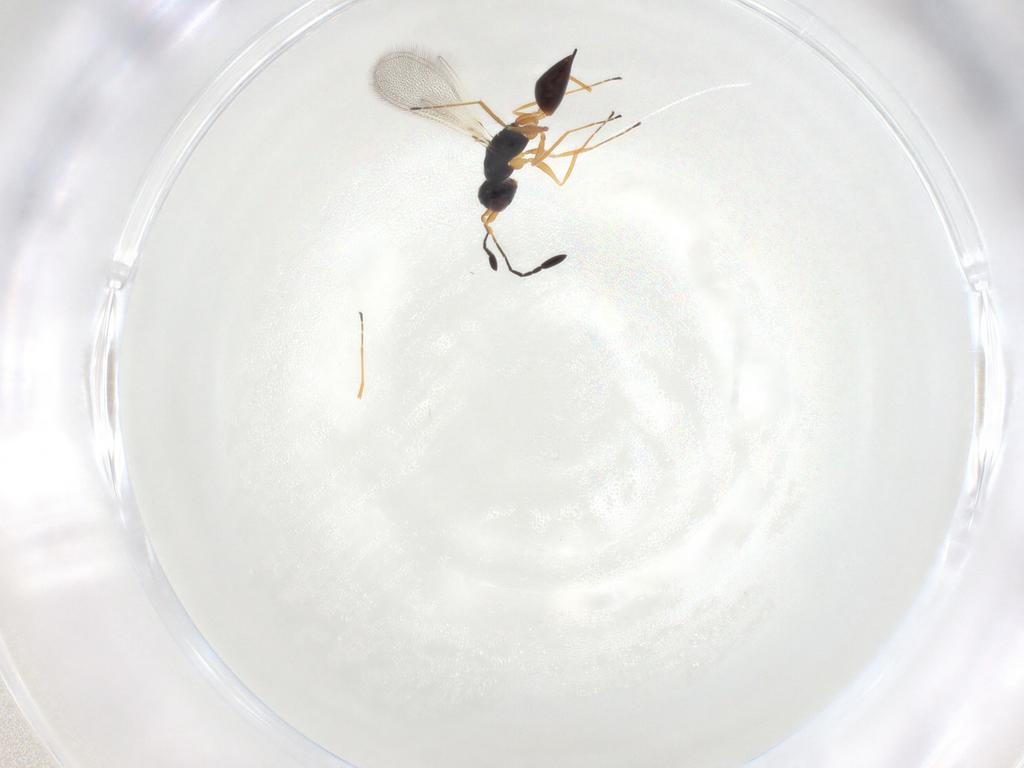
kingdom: Animalia
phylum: Arthropoda
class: Insecta
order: Hymenoptera
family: Mymaridae
